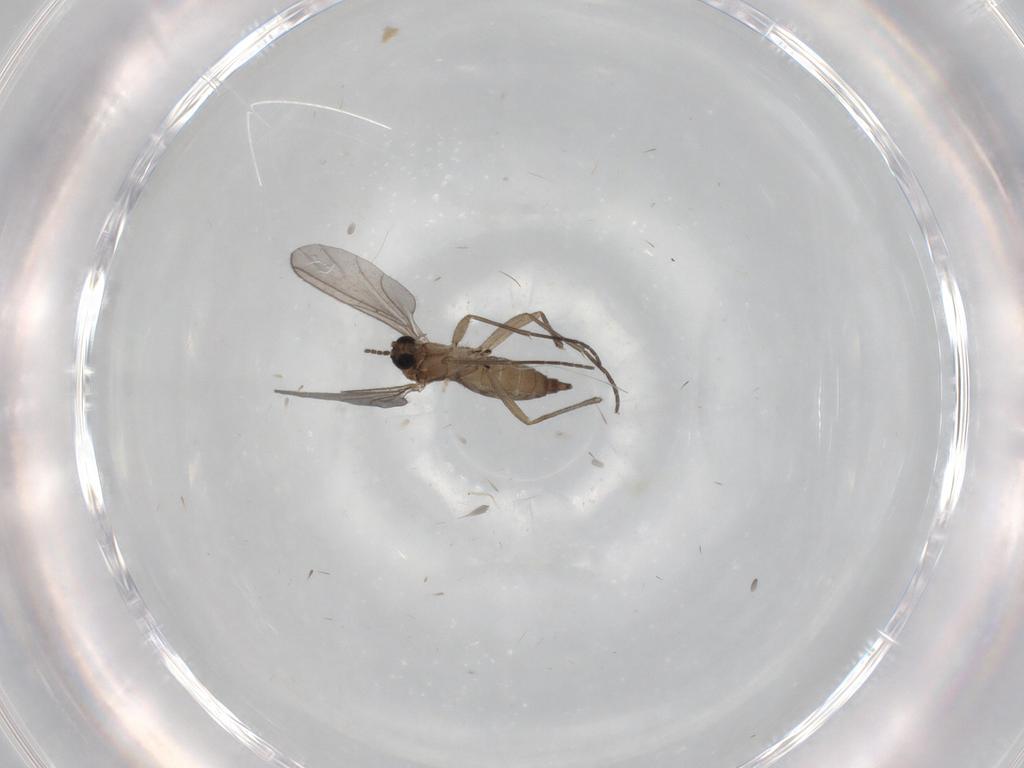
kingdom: Animalia
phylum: Arthropoda
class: Insecta
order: Diptera
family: Sciaridae
